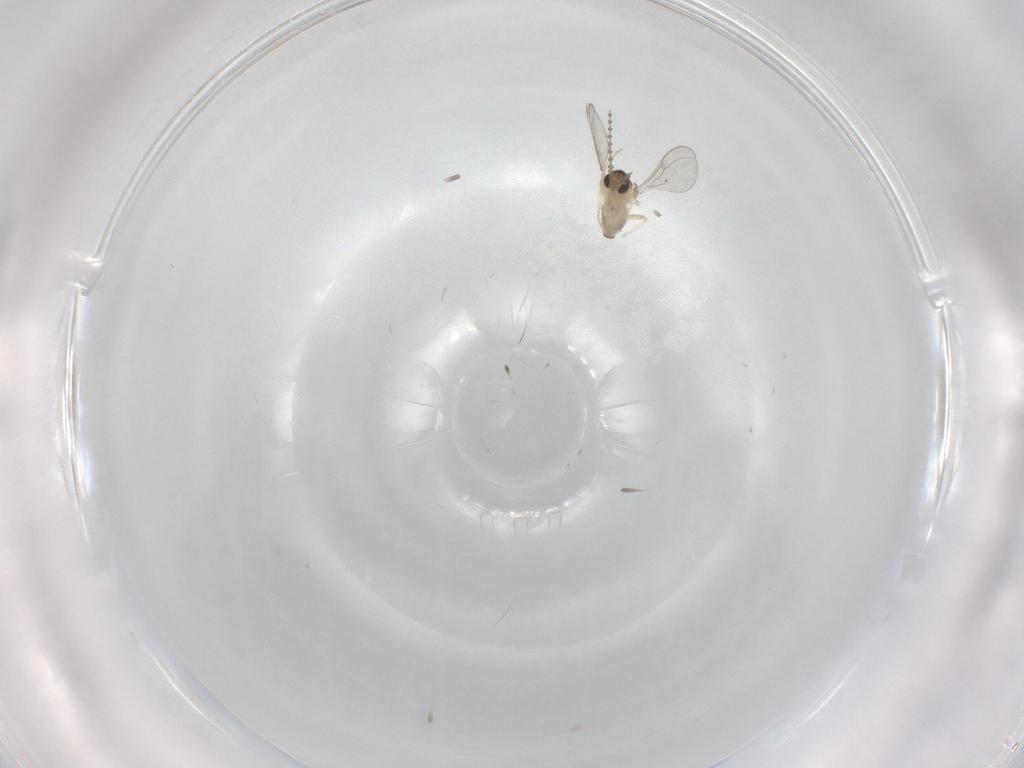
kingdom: Animalia
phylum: Arthropoda
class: Insecta
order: Diptera
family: Cecidomyiidae
